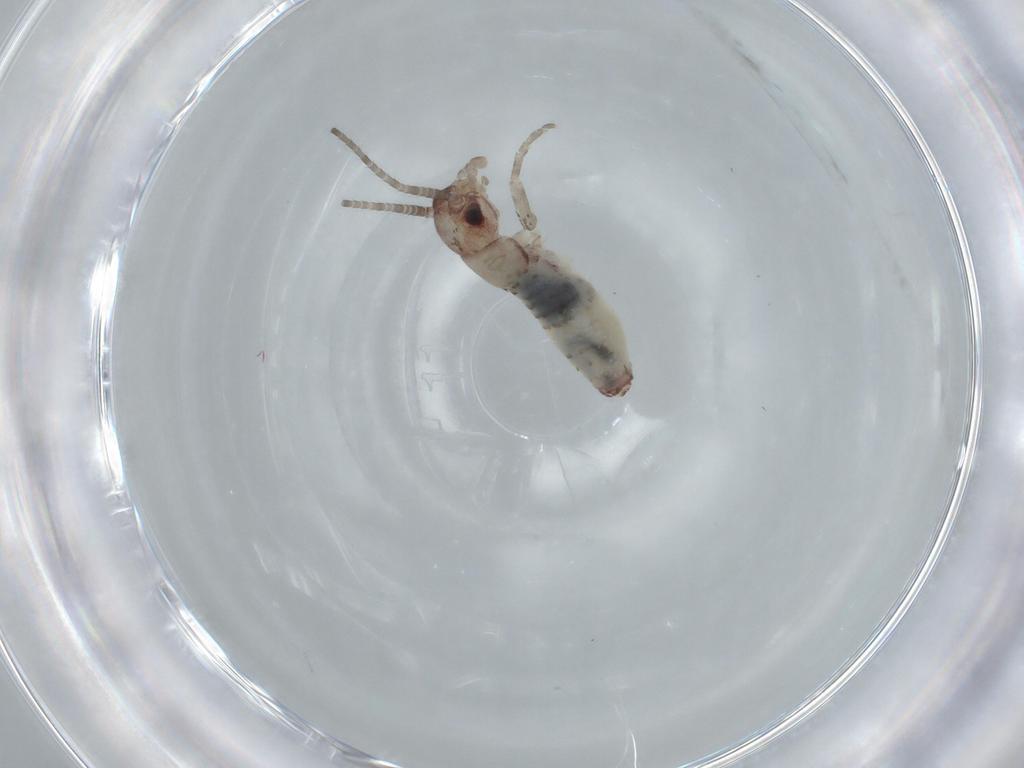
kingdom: Animalia
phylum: Arthropoda
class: Insecta
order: Orthoptera
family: Gryllidae
